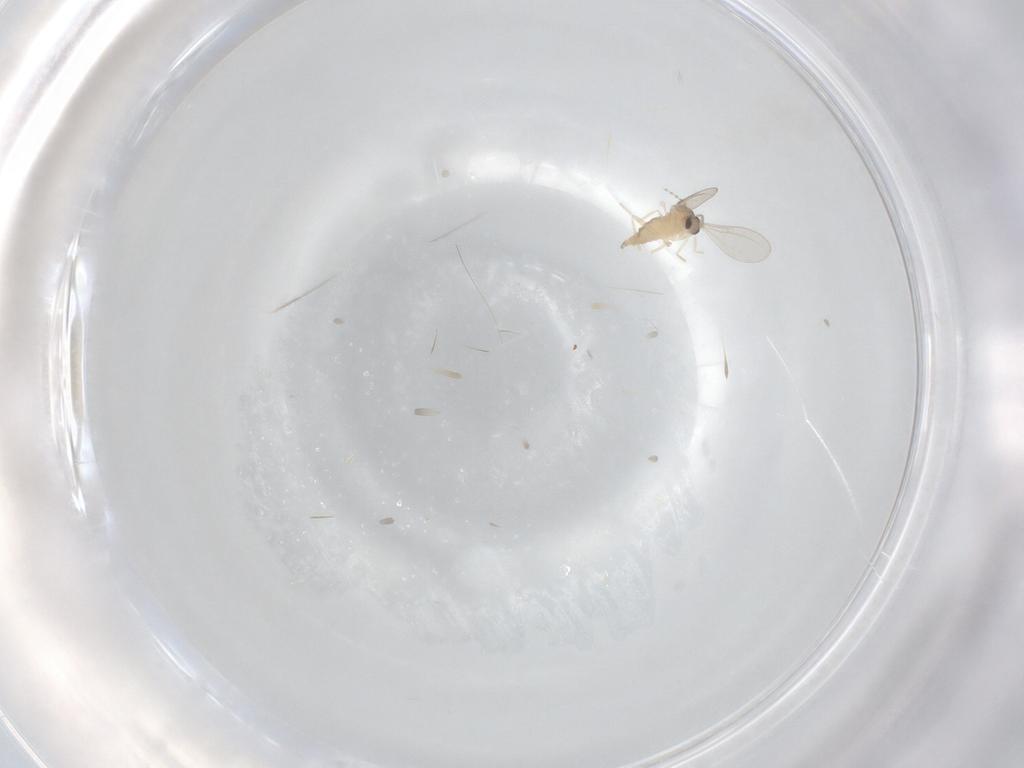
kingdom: Animalia
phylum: Arthropoda
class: Insecta
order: Diptera
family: Cecidomyiidae
